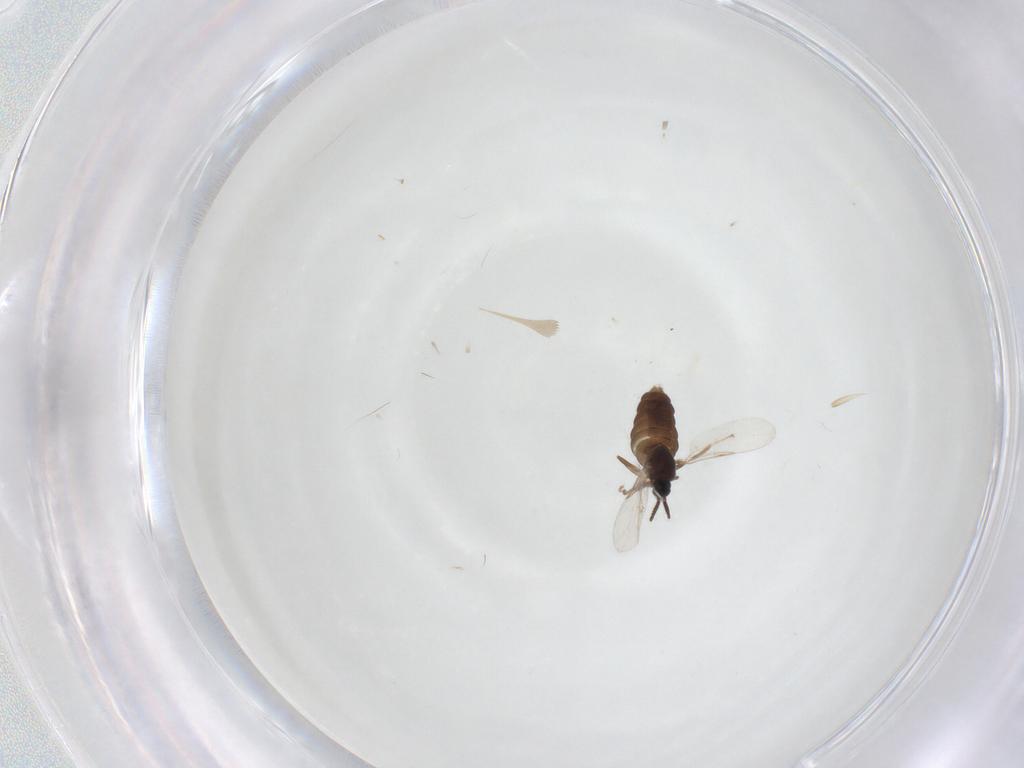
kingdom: Animalia
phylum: Arthropoda
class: Insecta
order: Diptera
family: Scatopsidae
